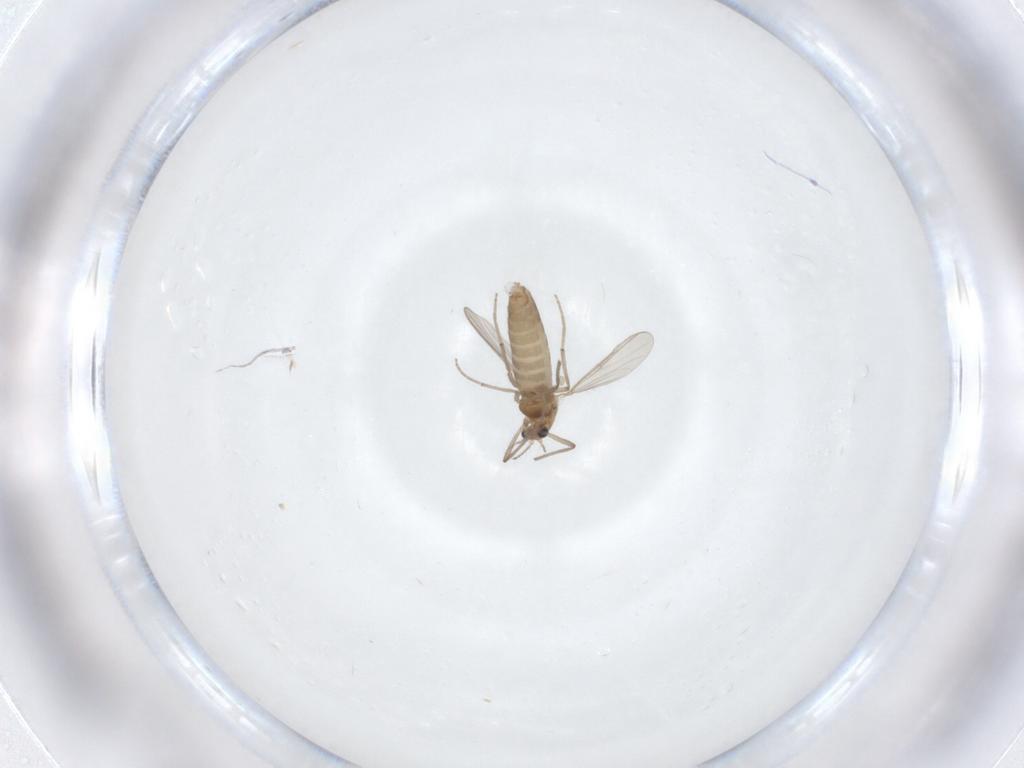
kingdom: Animalia
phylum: Arthropoda
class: Insecta
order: Diptera
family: Chironomidae
